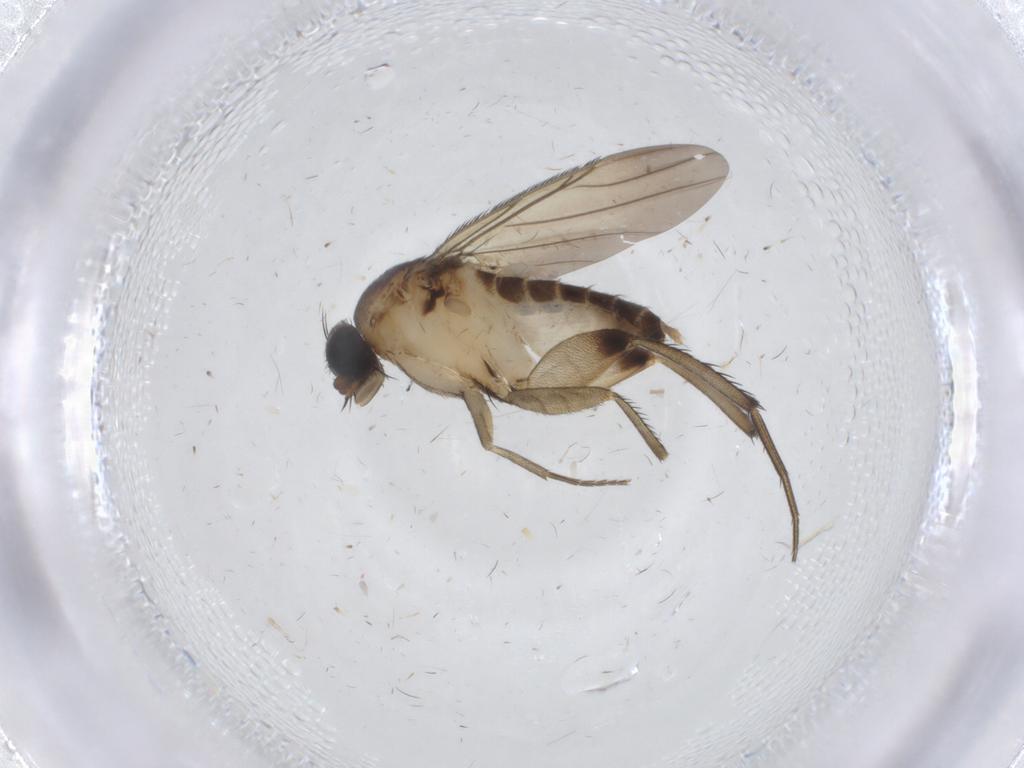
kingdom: Animalia
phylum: Arthropoda
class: Insecta
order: Diptera
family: Phoridae
